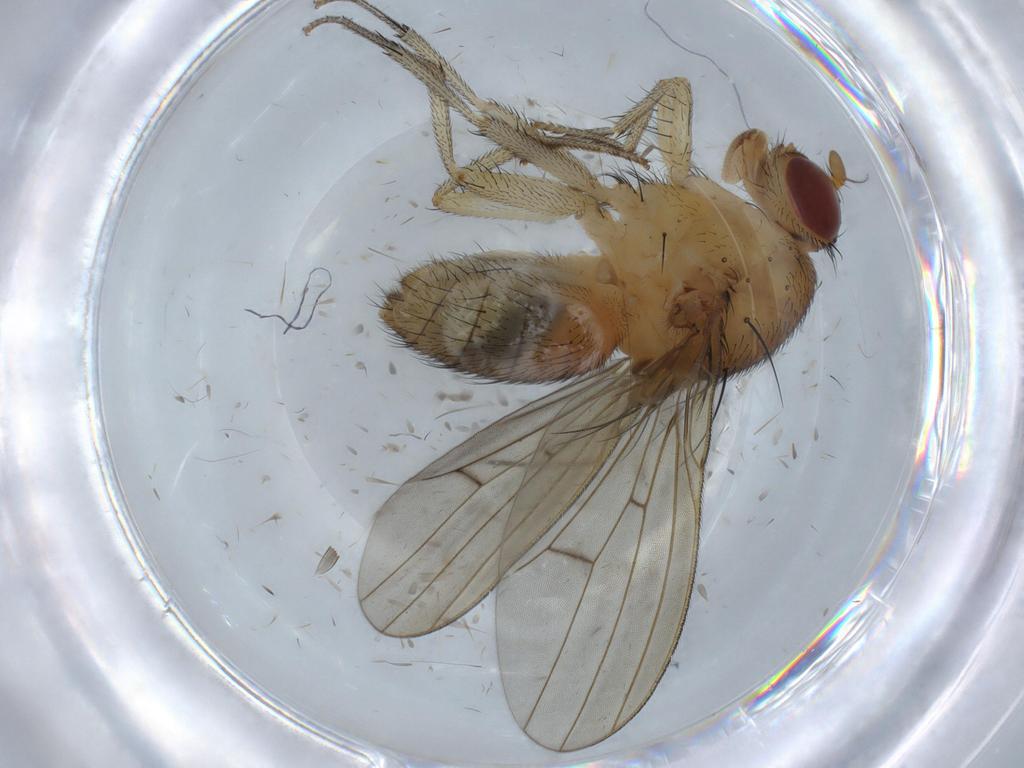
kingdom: Animalia
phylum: Arthropoda
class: Insecta
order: Diptera
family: Chironomidae
